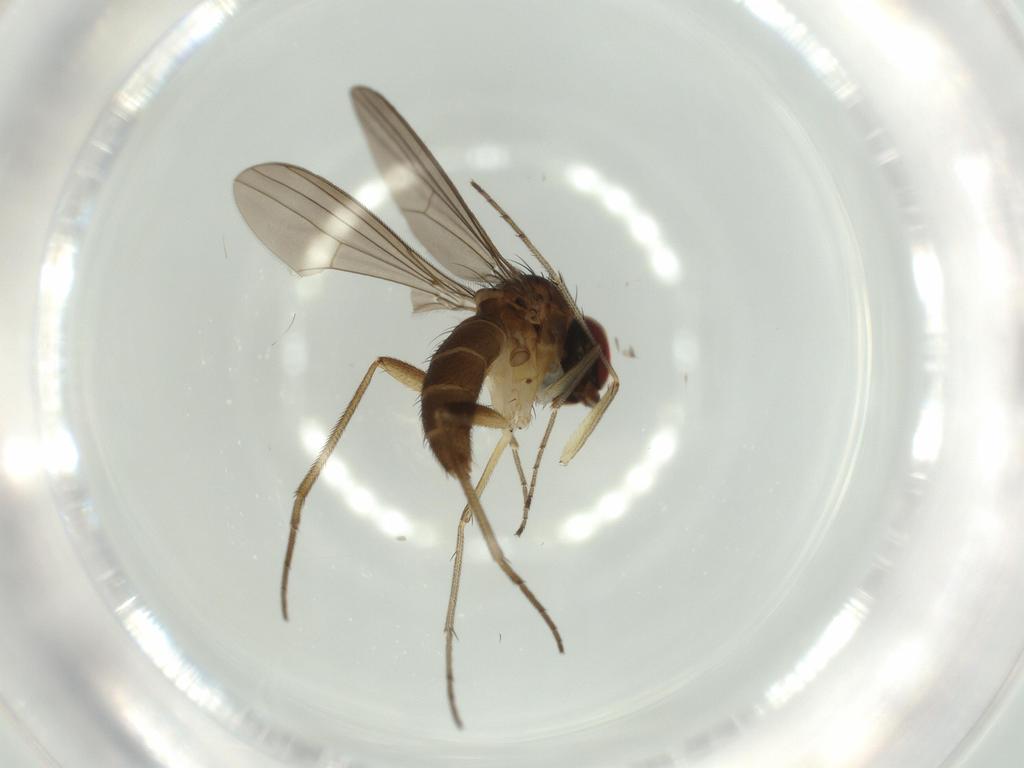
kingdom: Animalia
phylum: Arthropoda
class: Insecta
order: Diptera
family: Dolichopodidae
